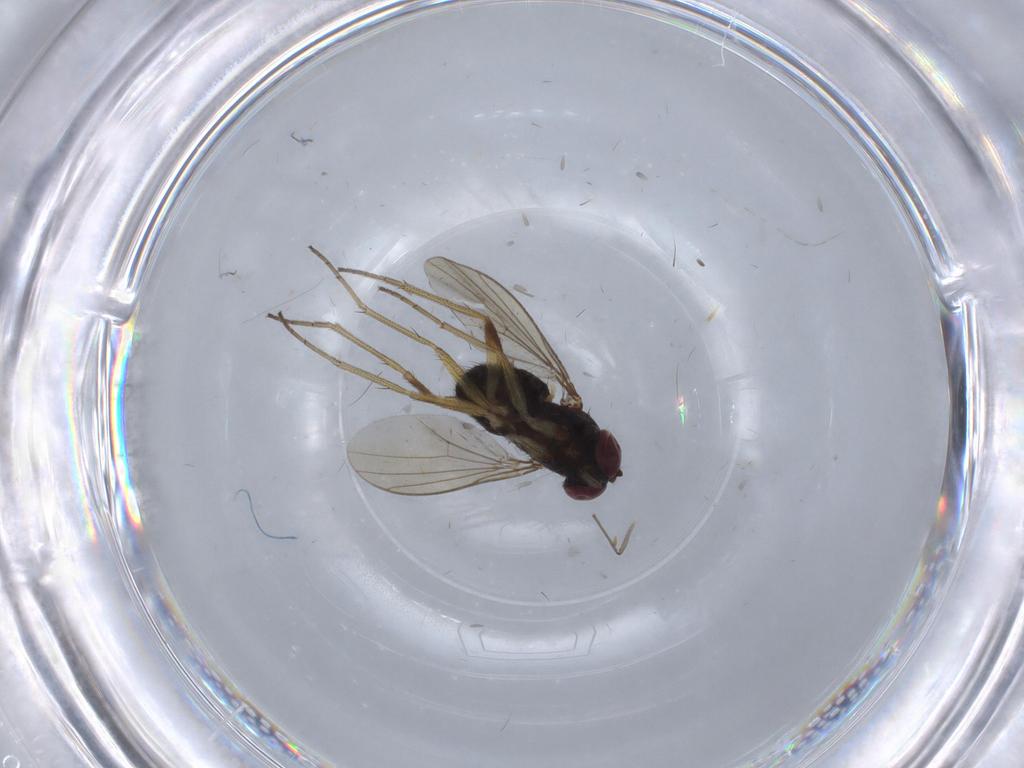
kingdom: Animalia
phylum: Arthropoda
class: Insecta
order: Diptera
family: Dolichopodidae
